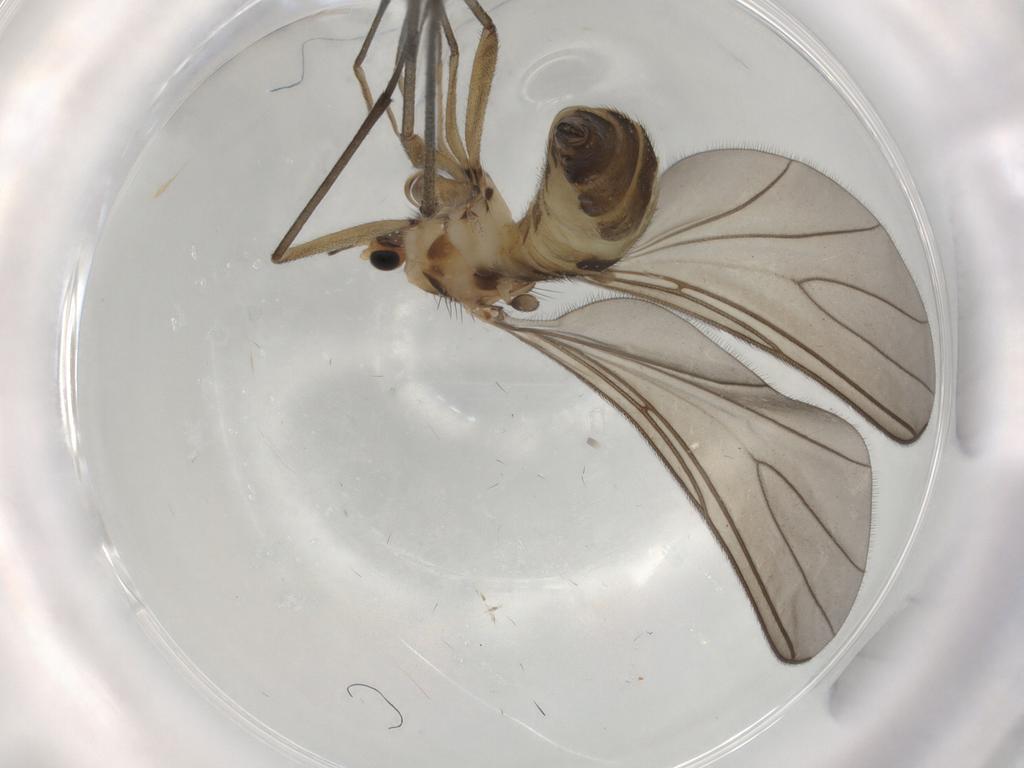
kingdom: Animalia
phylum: Arthropoda
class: Insecta
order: Diptera
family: Sciaridae
